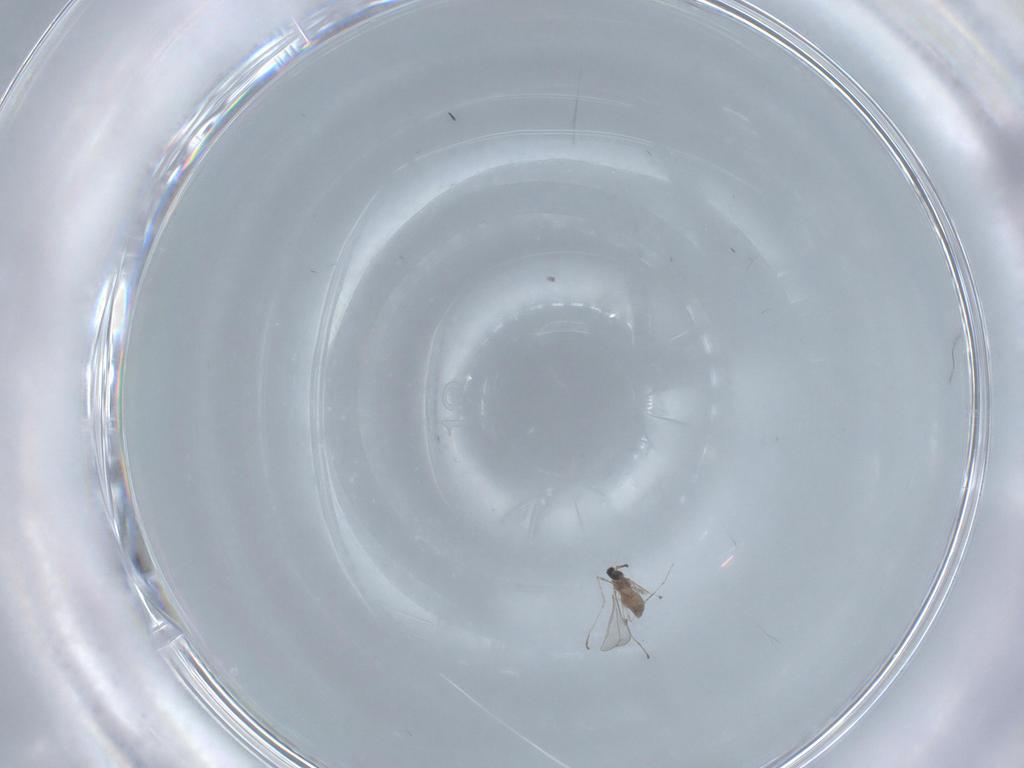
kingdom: Animalia
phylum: Arthropoda
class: Insecta
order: Diptera
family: Cecidomyiidae
